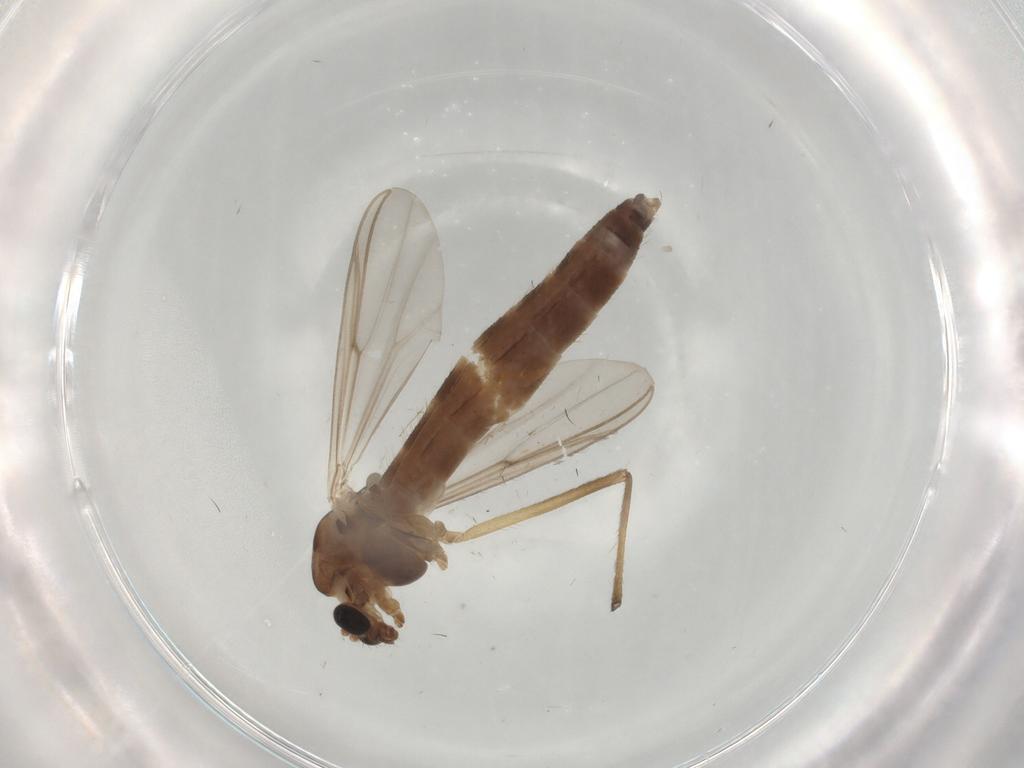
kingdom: Animalia
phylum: Arthropoda
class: Insecta
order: Diptera
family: Chironomidae
